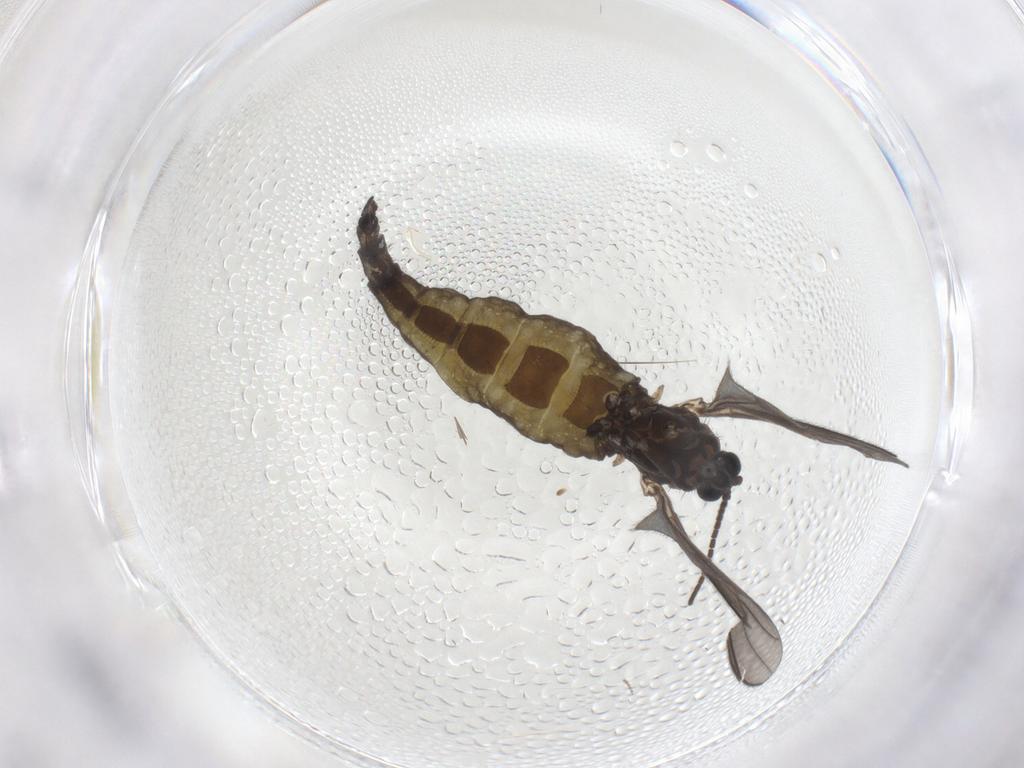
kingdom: Animalia
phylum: Arthropoda
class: Insecta
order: Diptera
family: Sciaridae
